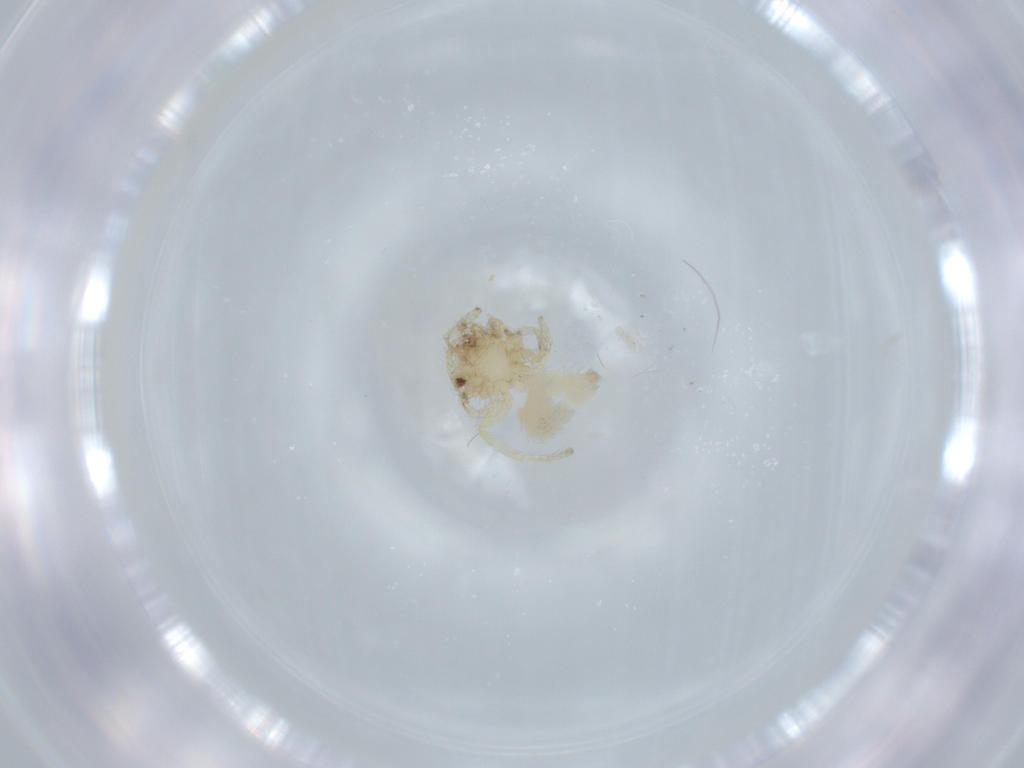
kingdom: Animalia
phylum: Arthropoda
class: Arachnida
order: Araneae
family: Oonopidae
